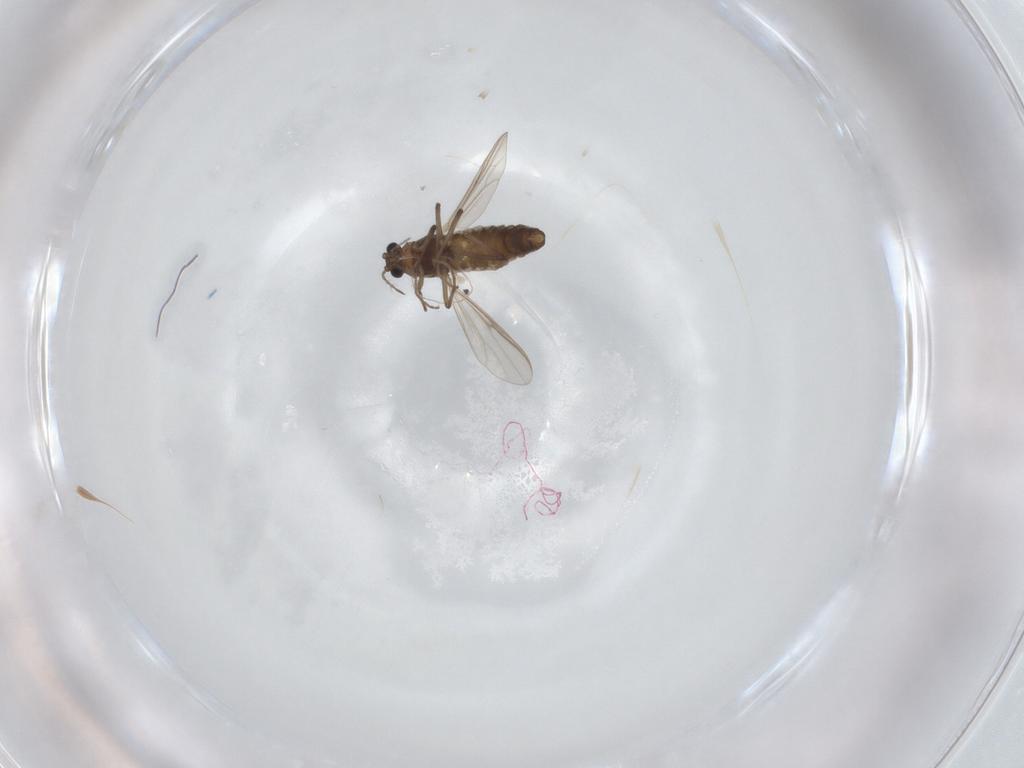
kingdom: Animalia
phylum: Arthropoda
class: Insecta
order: Diptera
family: Chironomidae
